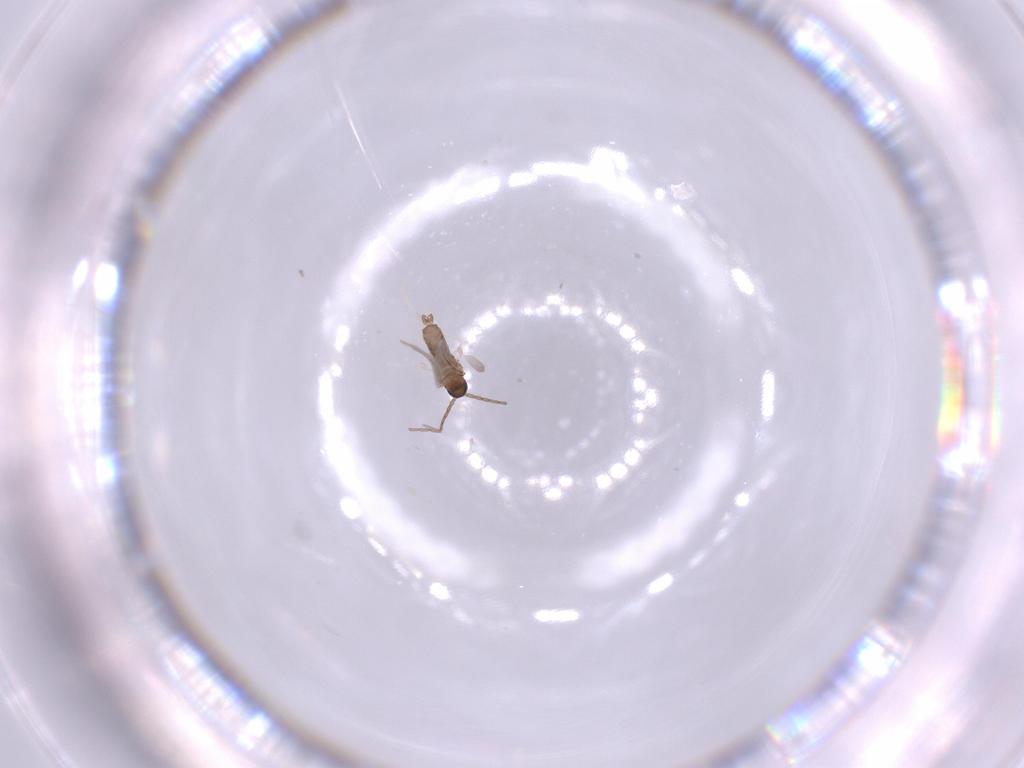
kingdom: Animalia
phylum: Arthropoda
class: Insecta
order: Diptera
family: Cecidomyiidae
